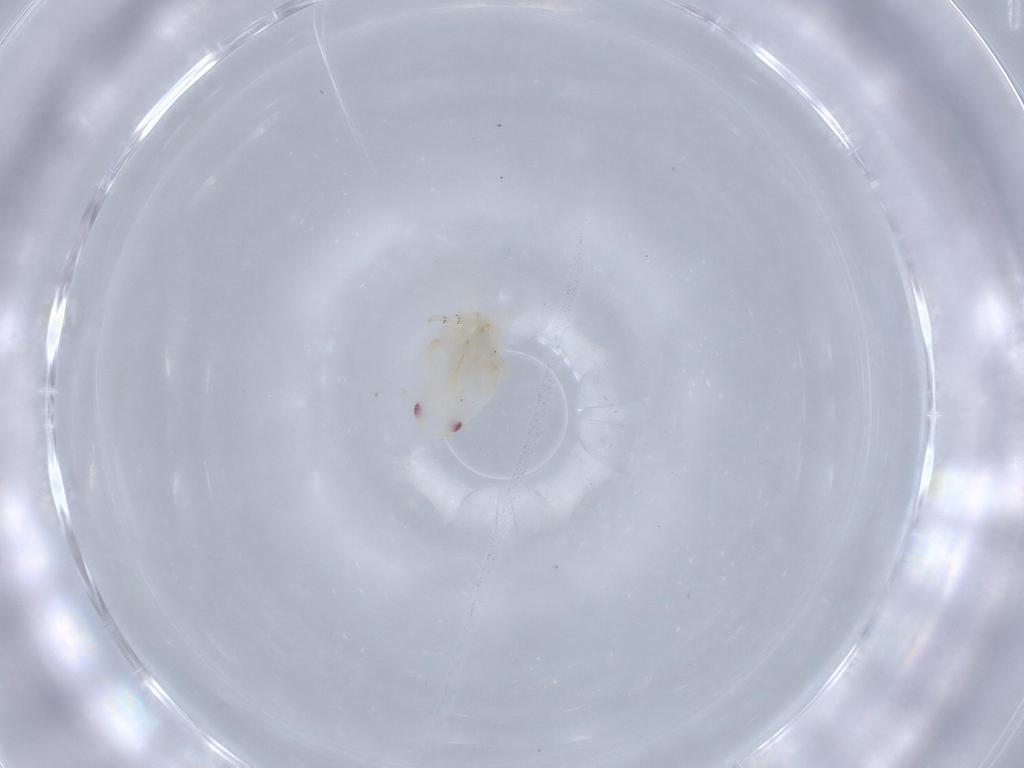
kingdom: Animalia
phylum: Arthropoda
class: Insecta
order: Hemiptera
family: Flatidae
